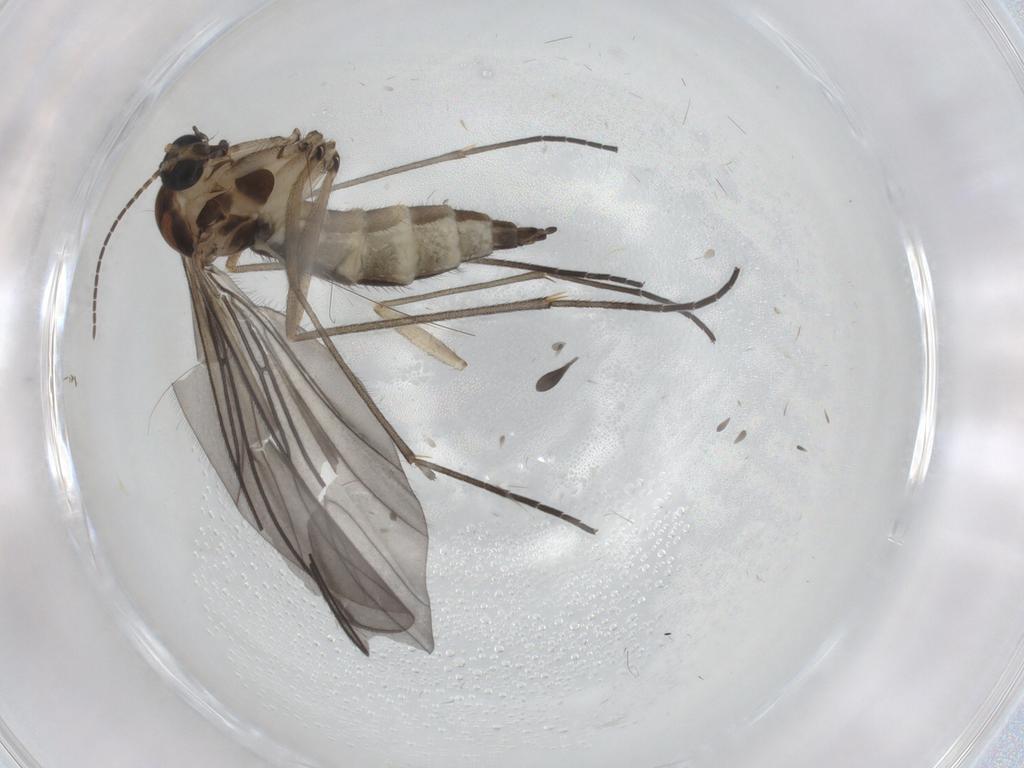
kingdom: Animalia
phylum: Arthropoda
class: Insecta
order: Diptera
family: Sciaridae
